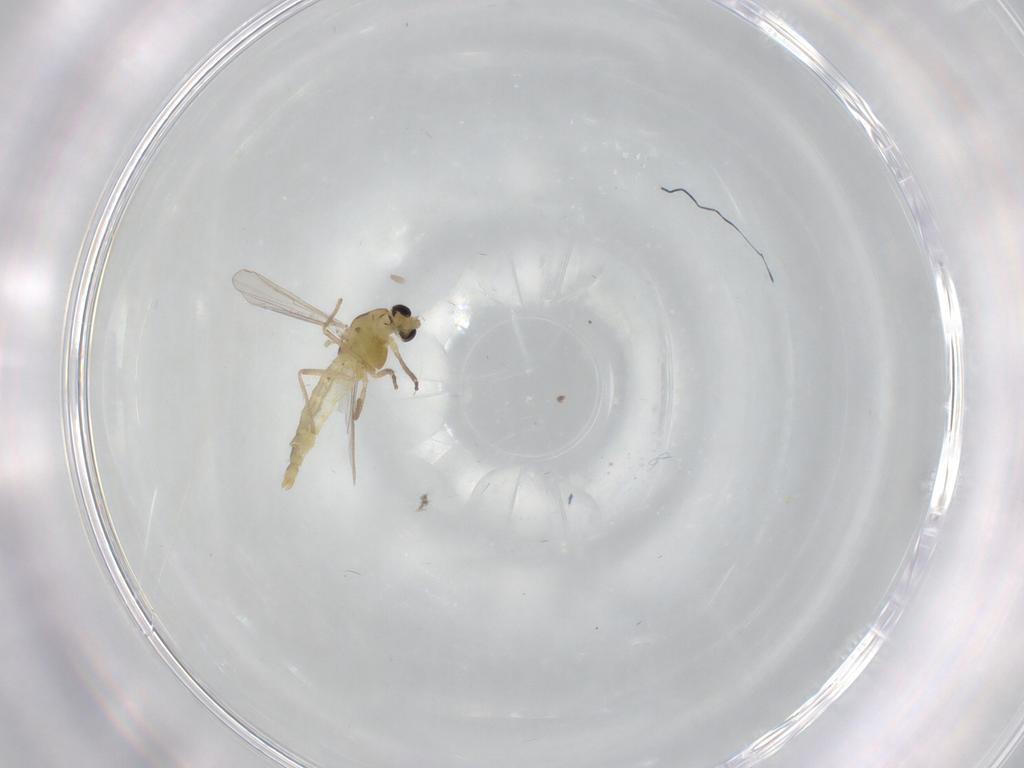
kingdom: Animalia
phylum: Arthropoda
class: Insecta
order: Diptera
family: Chironomidae
